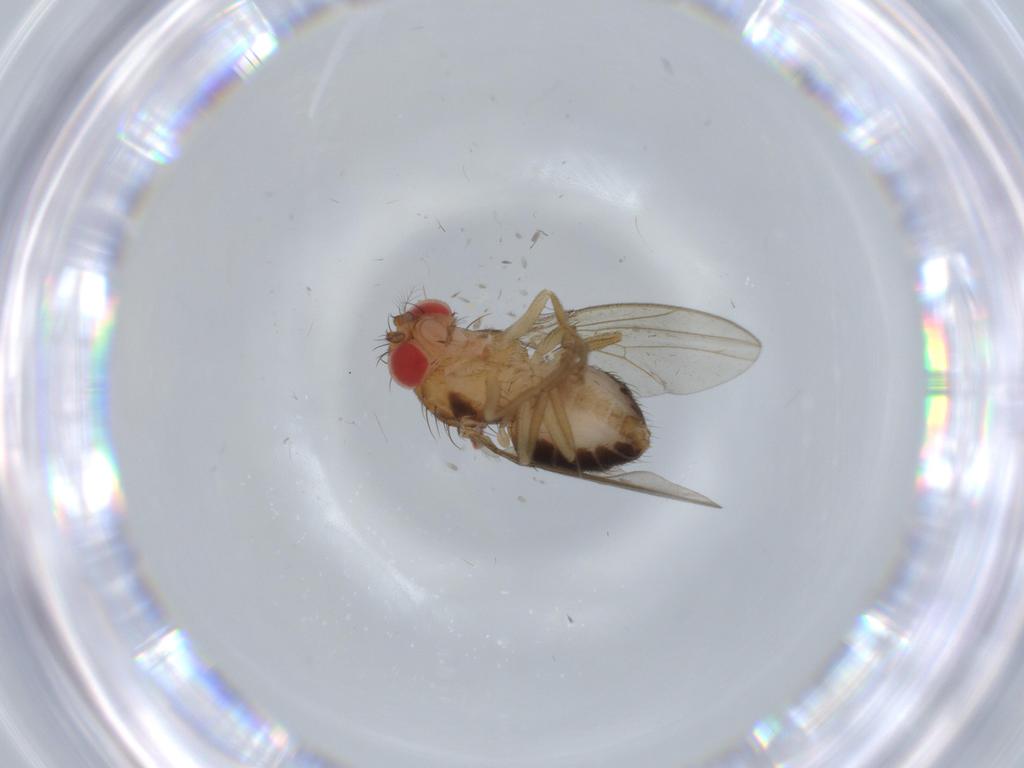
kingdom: Animalia
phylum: Arthropoda
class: Insecta
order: Diptera
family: Drosophilidae
